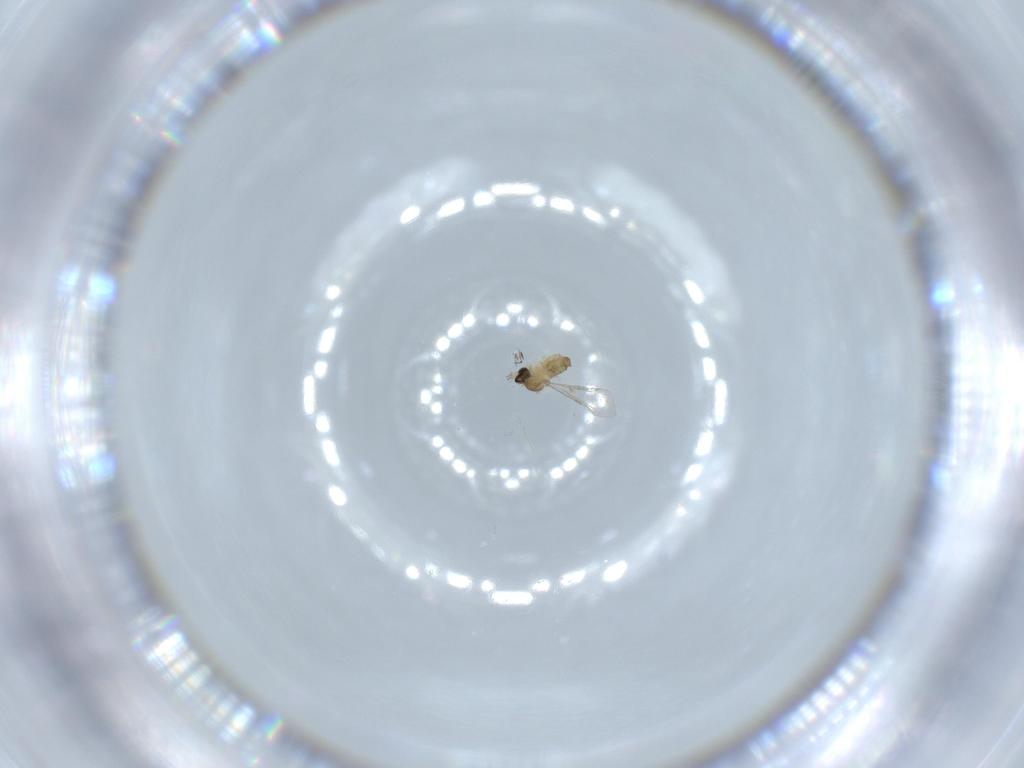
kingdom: Animalia
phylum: Arthropoda
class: Insecta
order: Diptera
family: Cecidomyiidae
